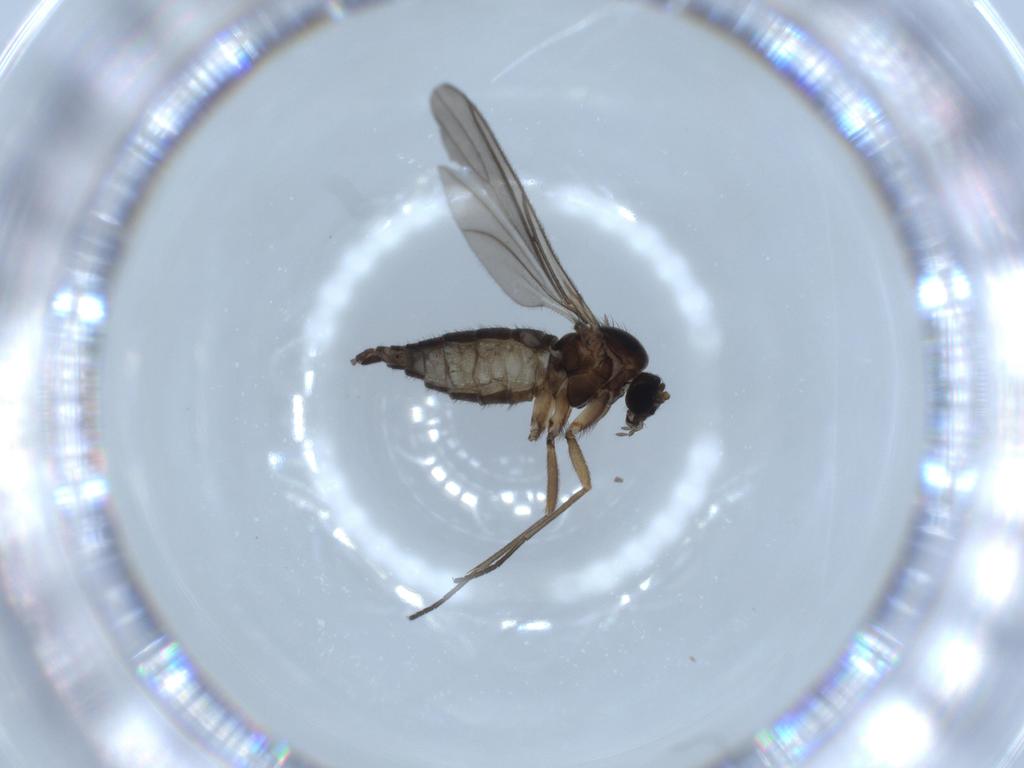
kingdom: Animalia
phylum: Arthropoda
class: Insecta
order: Diptera
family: Sciaridae
